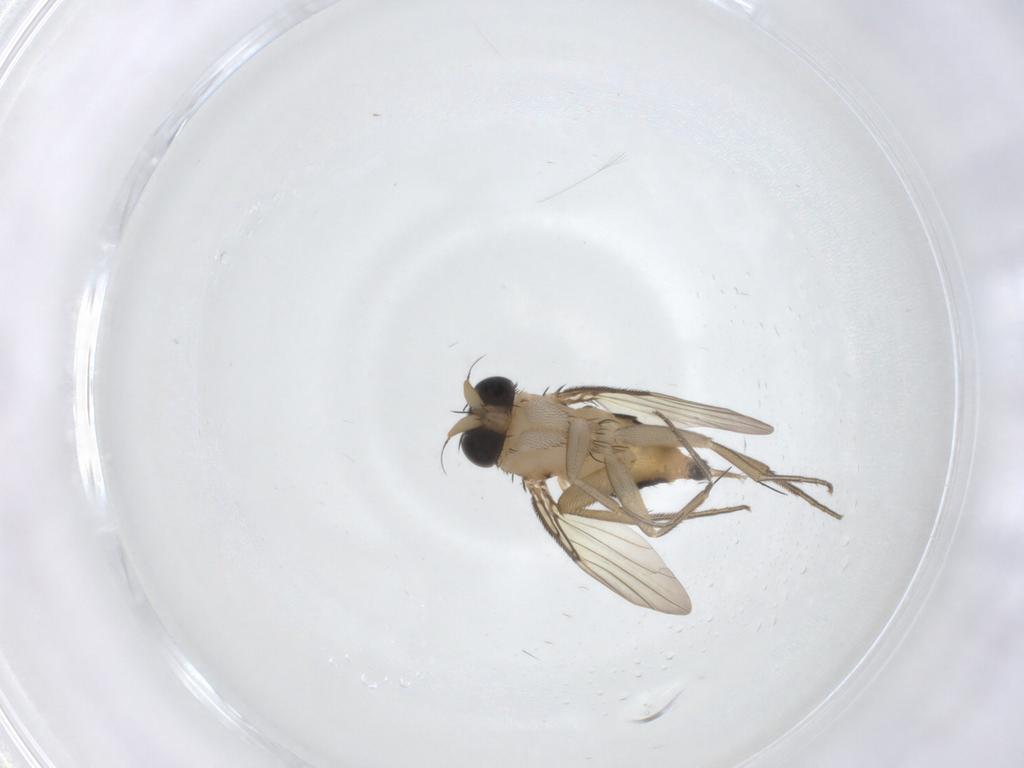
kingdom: Animalia
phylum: Arthropoda
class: Insecta
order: Diptera
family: Phoridae
